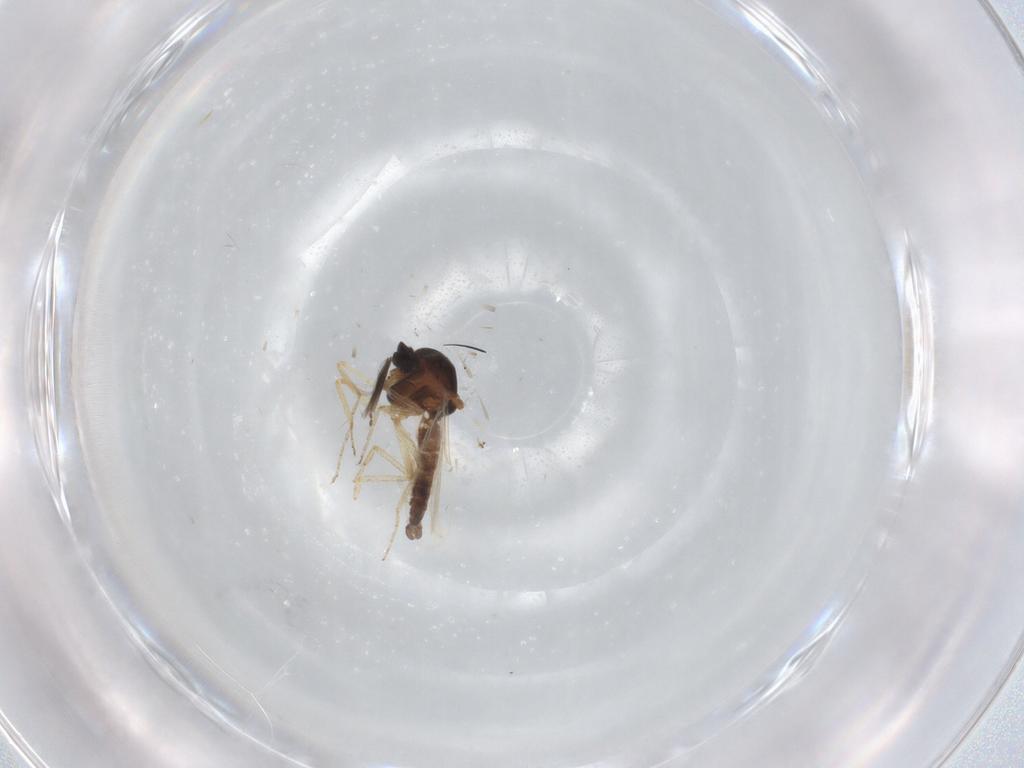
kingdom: Animalia
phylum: Arthropoda
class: Insecta
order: Diptera
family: Ceratopogonidae
